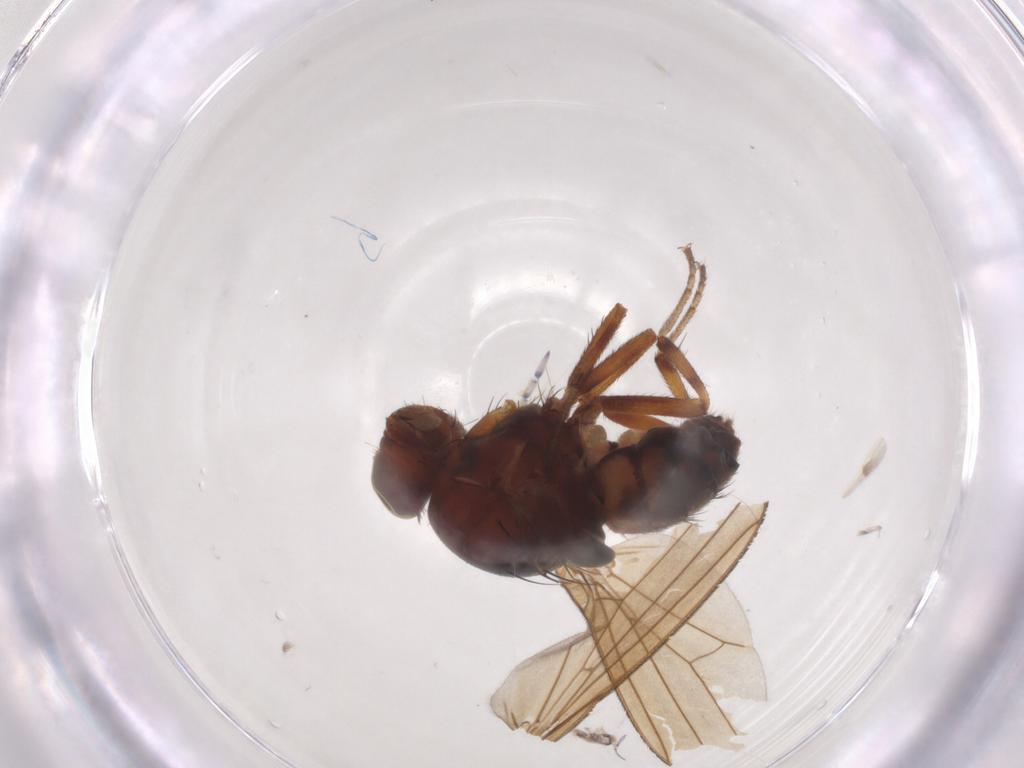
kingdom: Animalia
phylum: Arthropoda
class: Insecta
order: Diptera
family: Lauxaniidae
